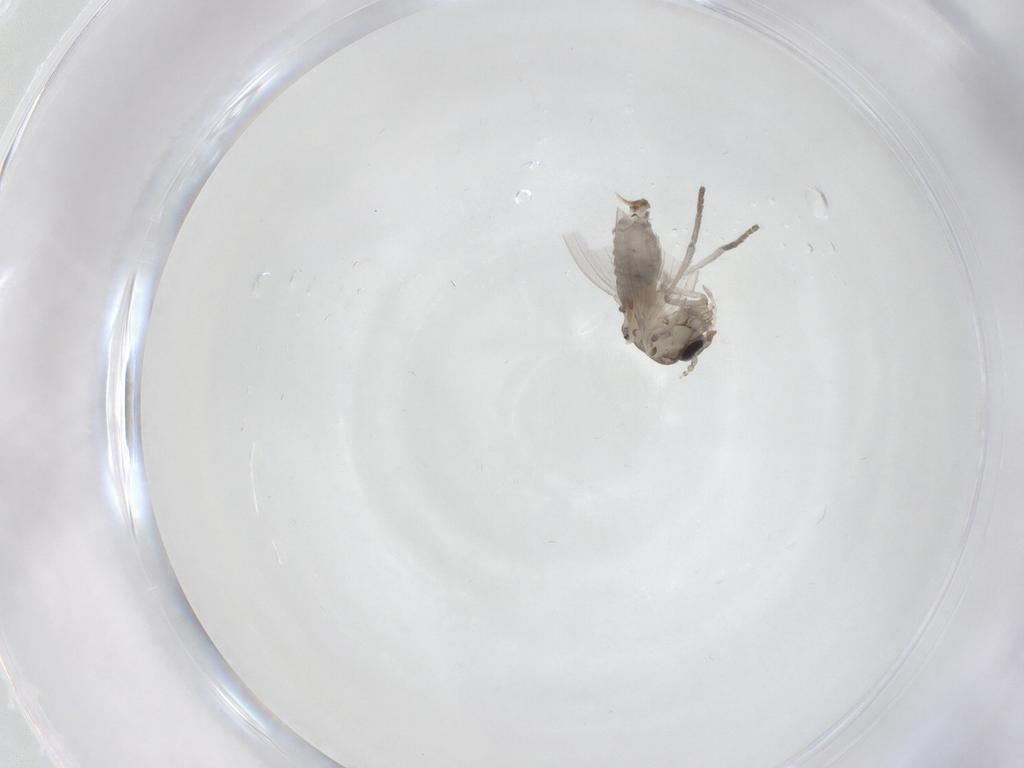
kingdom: Animalia
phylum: Arthropoda
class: Insecta
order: Diptera
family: Psychodidae
